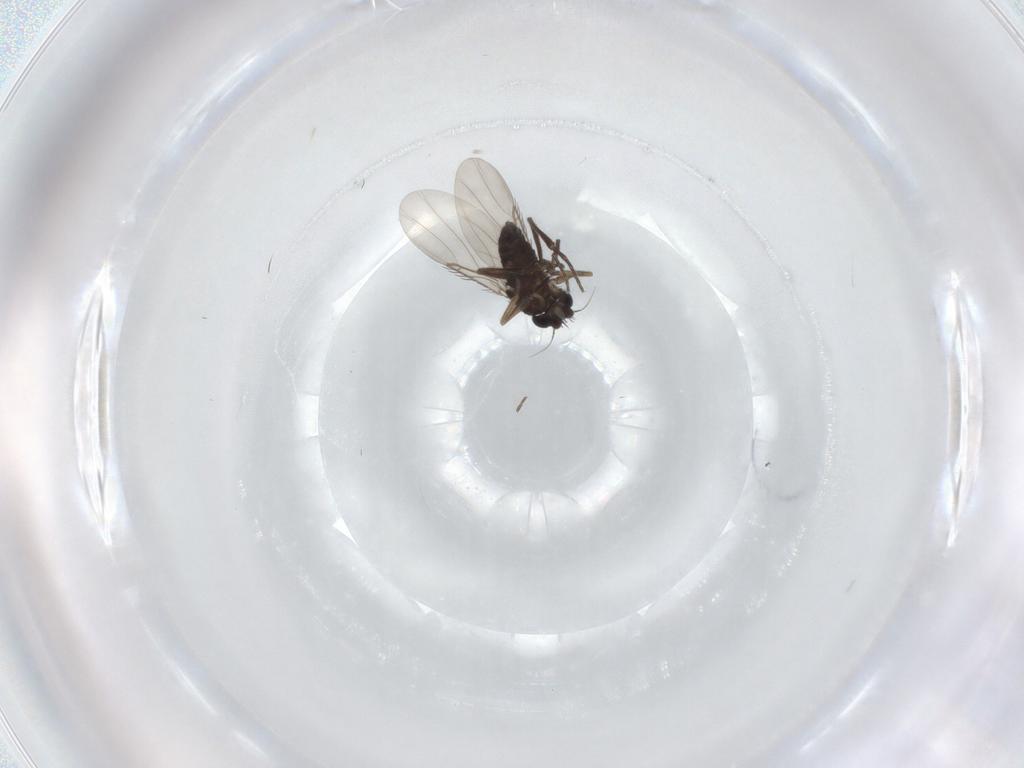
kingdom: Animalia
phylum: Arthropoda
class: Insecta
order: Diptera
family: Phoridae
